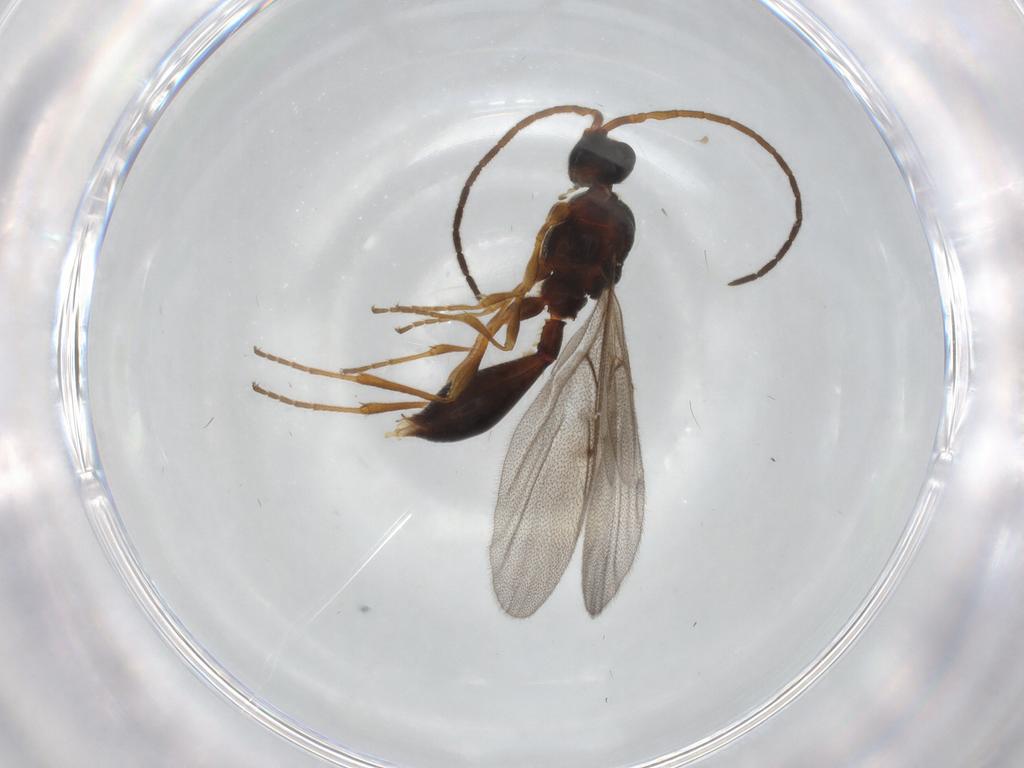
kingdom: Animalia
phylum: Arthropoda
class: Insecta
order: Hymenoptera
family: Diapriidae
